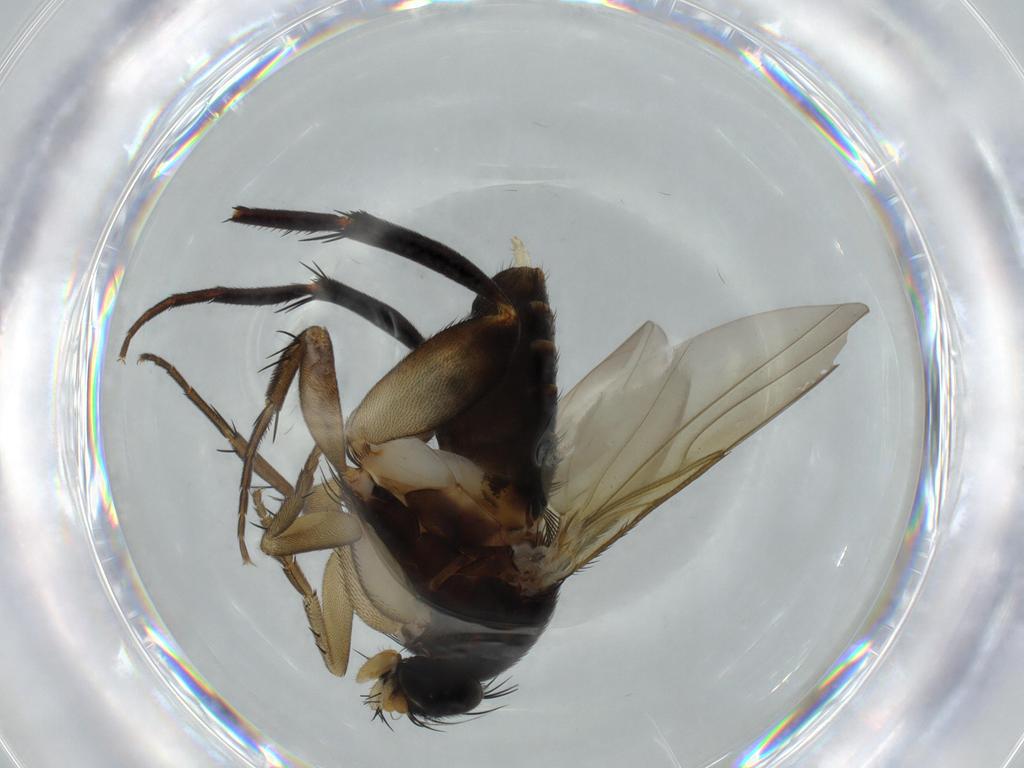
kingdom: Animalia
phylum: Arthropoda
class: Insecta
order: Diptera
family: Phoridae
